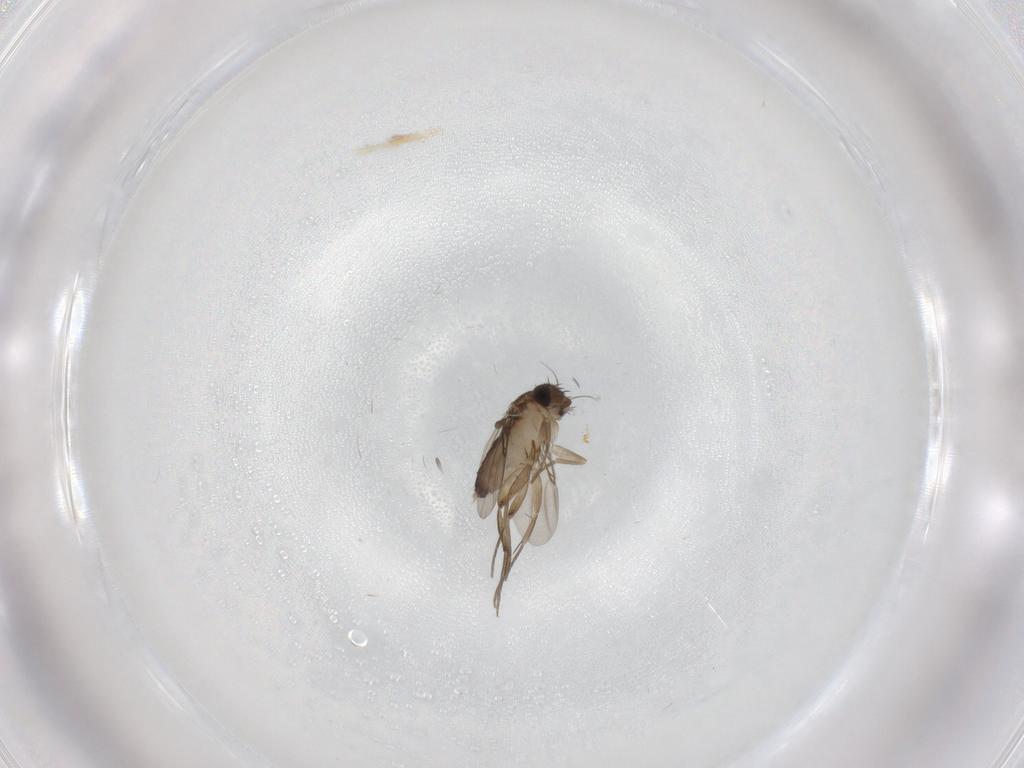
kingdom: Animalia
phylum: Arthropoda
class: Insecta
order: Diptera
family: Phoridae
